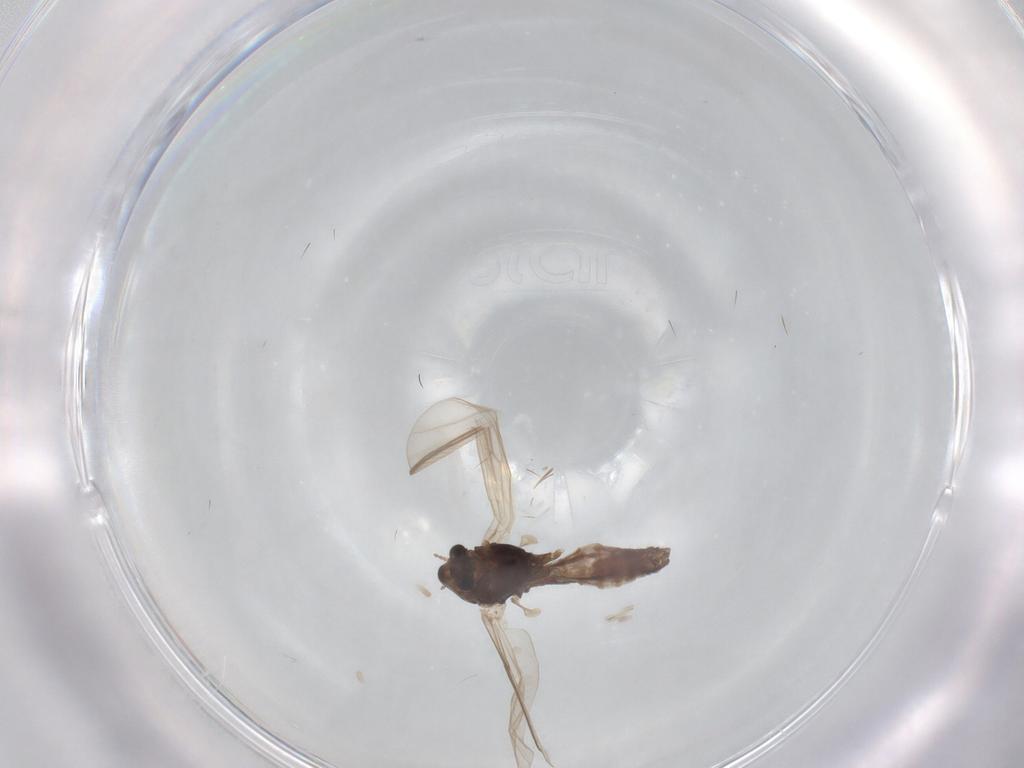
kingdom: Animalia
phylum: Arthropoda
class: Insecta
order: Diptera
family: Chironomidae
